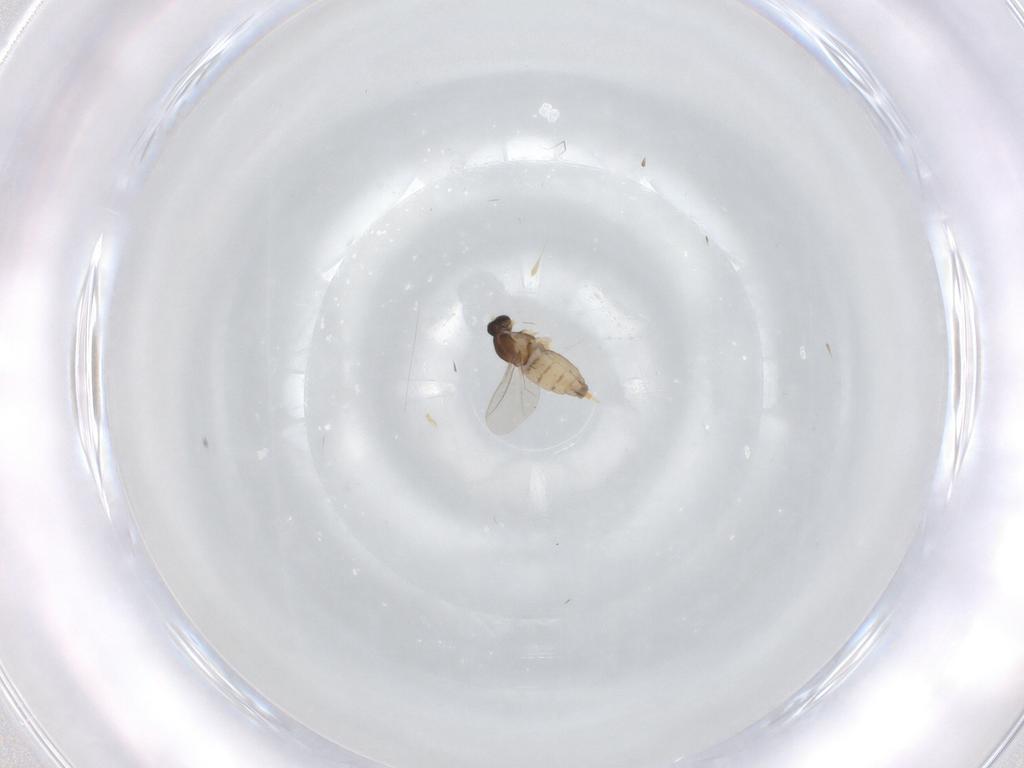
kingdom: Animalia
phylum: Arthropoda
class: Insecta
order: Diptera
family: Cecidomyiidae
